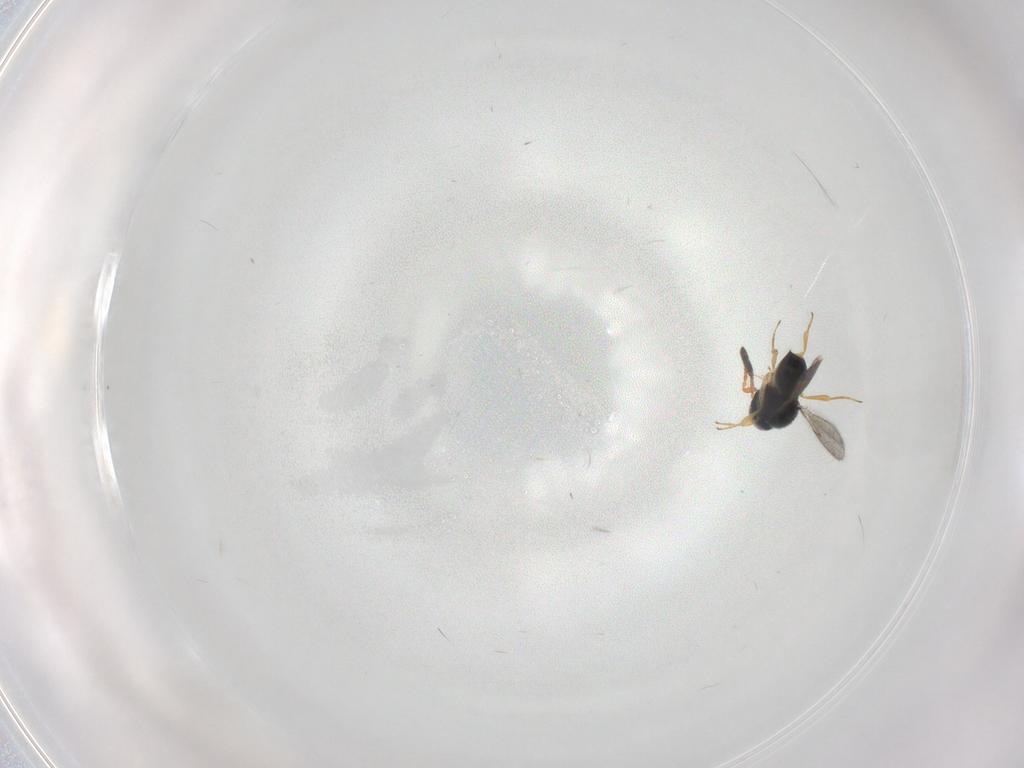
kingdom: Animalia
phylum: Arthropoda
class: Insecta
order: Hymenoptera
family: Scelionidae
